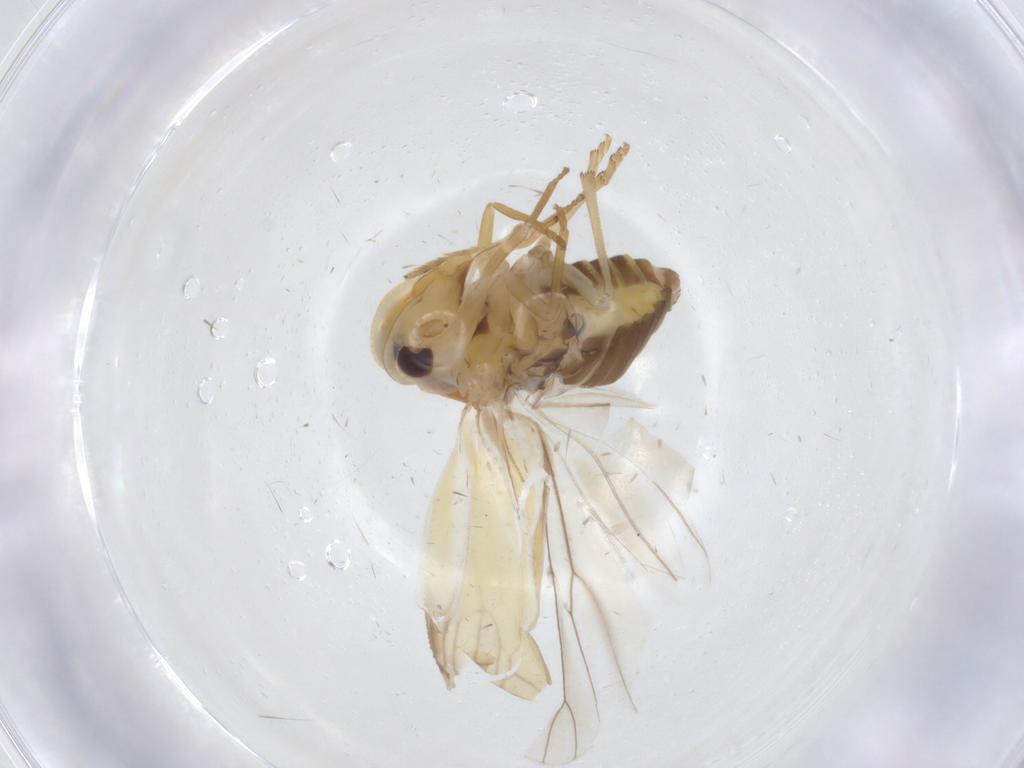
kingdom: Animalia
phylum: Arthropoda
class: Insecta
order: Hemiptera
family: Meenoplidae
